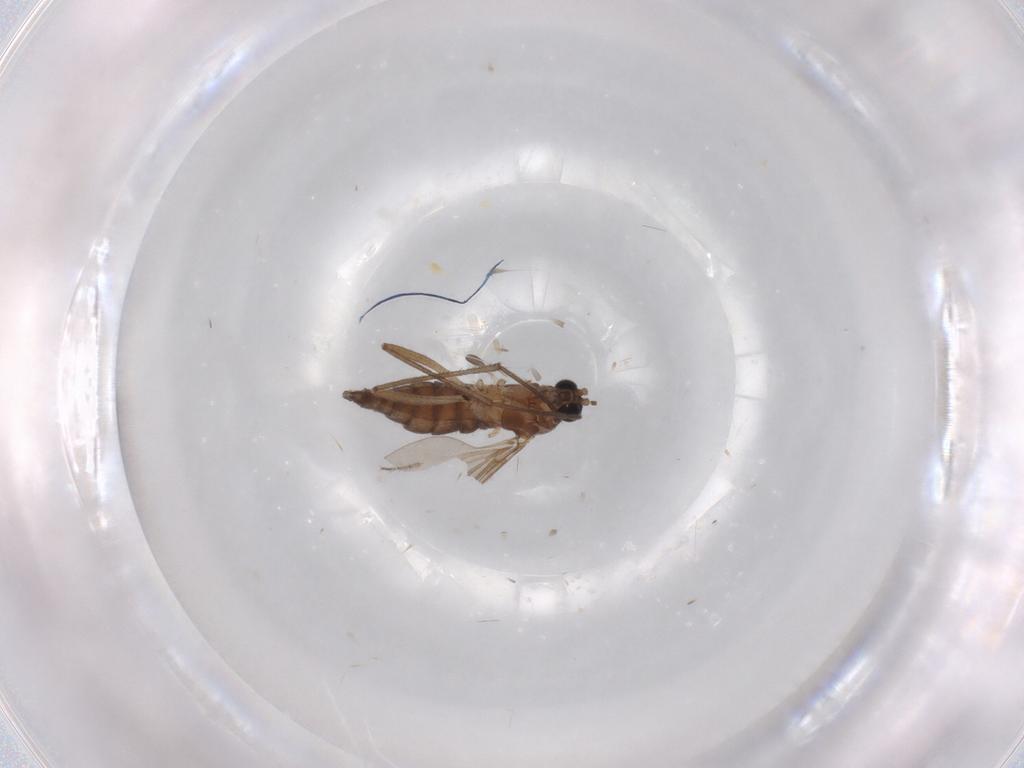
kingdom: Animalia
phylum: Arthropoda
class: Insecta
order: Diptera
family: Sciaridae
